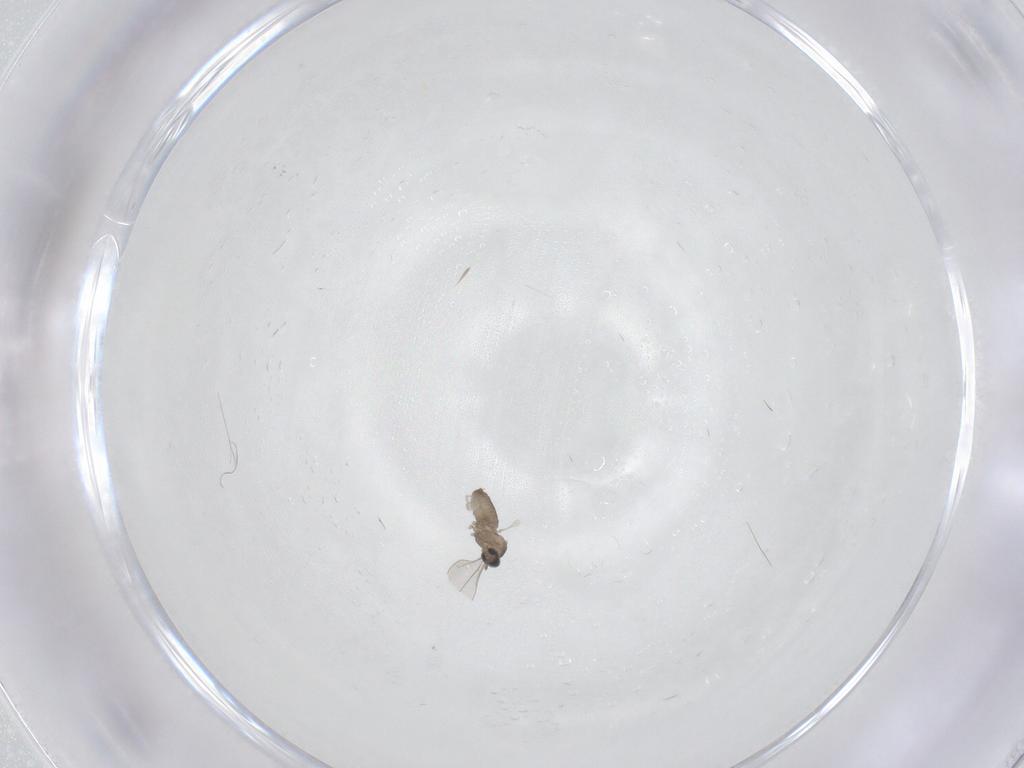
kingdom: Animalia
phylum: Arthropoda
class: Insecta
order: Diptera
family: Cecidomyiidae
